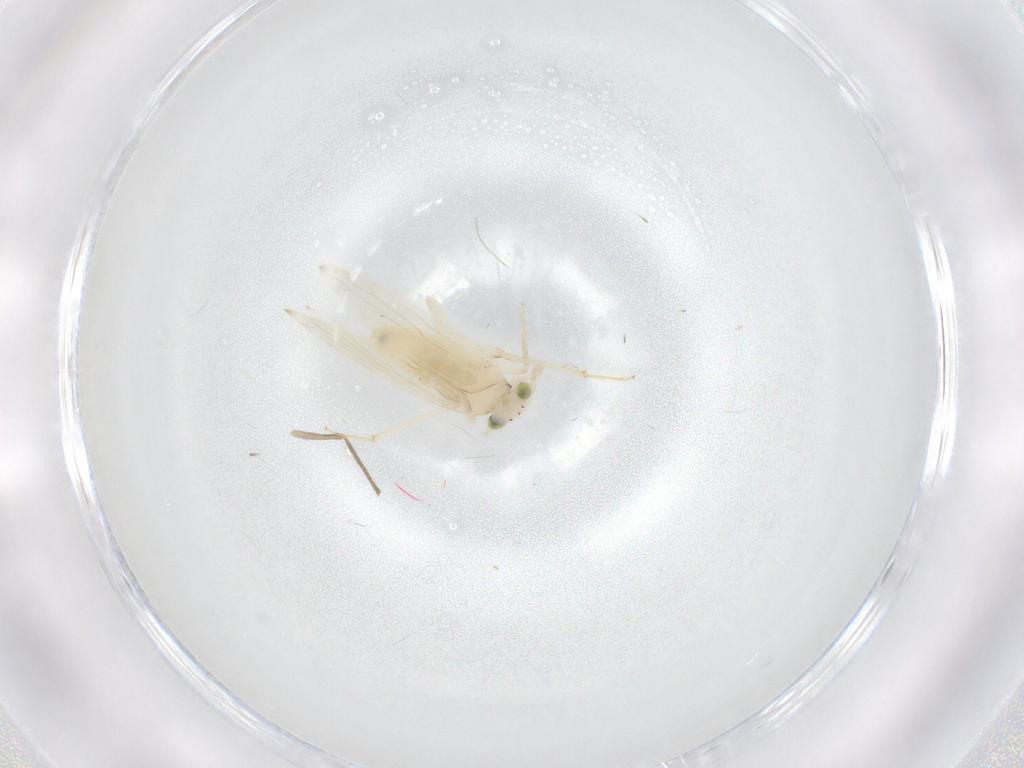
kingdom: Animalia
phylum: Arthropoda
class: Insecta
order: Psocodea
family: Lepidopsocidae
